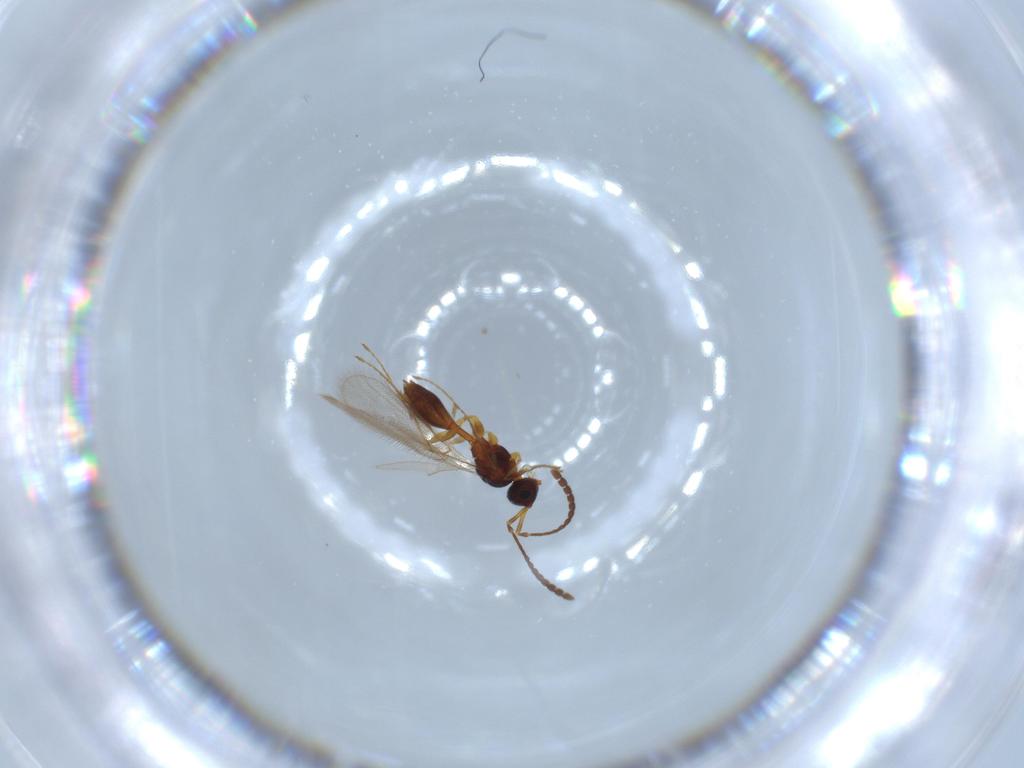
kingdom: Animalia
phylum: Arthropoda
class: Insecta
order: Hymenoptera
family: Diapriidae
